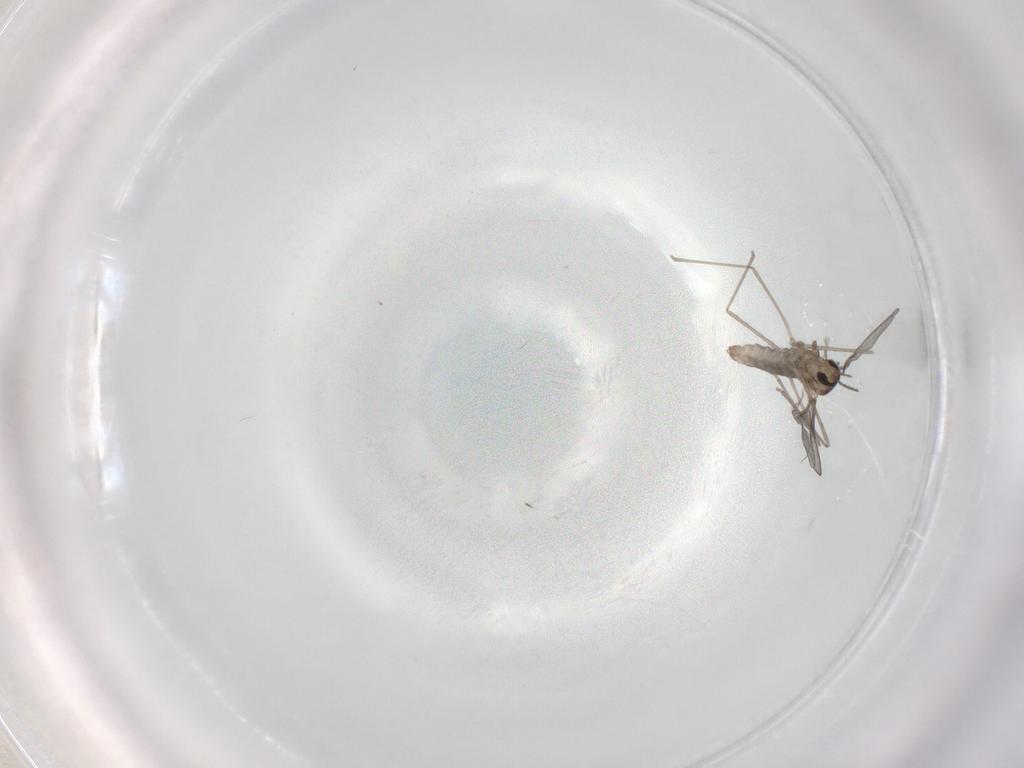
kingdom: Animalia
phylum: Arthropoda
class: Insecta
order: Diptera
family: Cecidomyiidae
